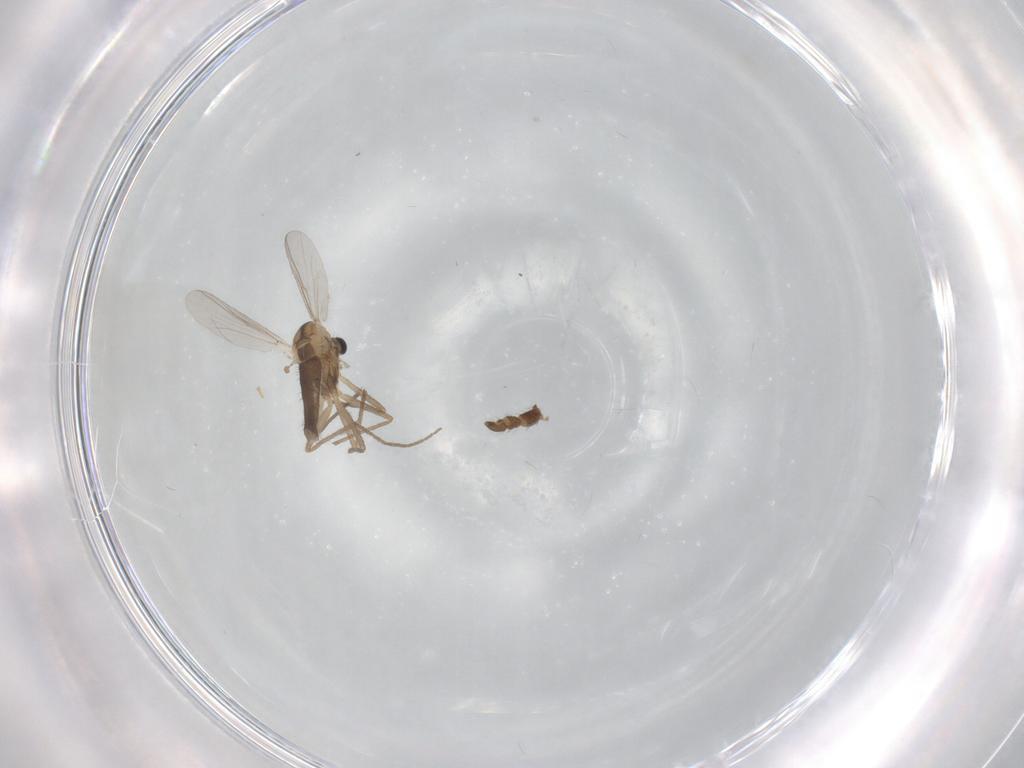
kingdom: Animalia
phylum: Arthropoda
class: Insecta
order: Diptera
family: Chironomidae
